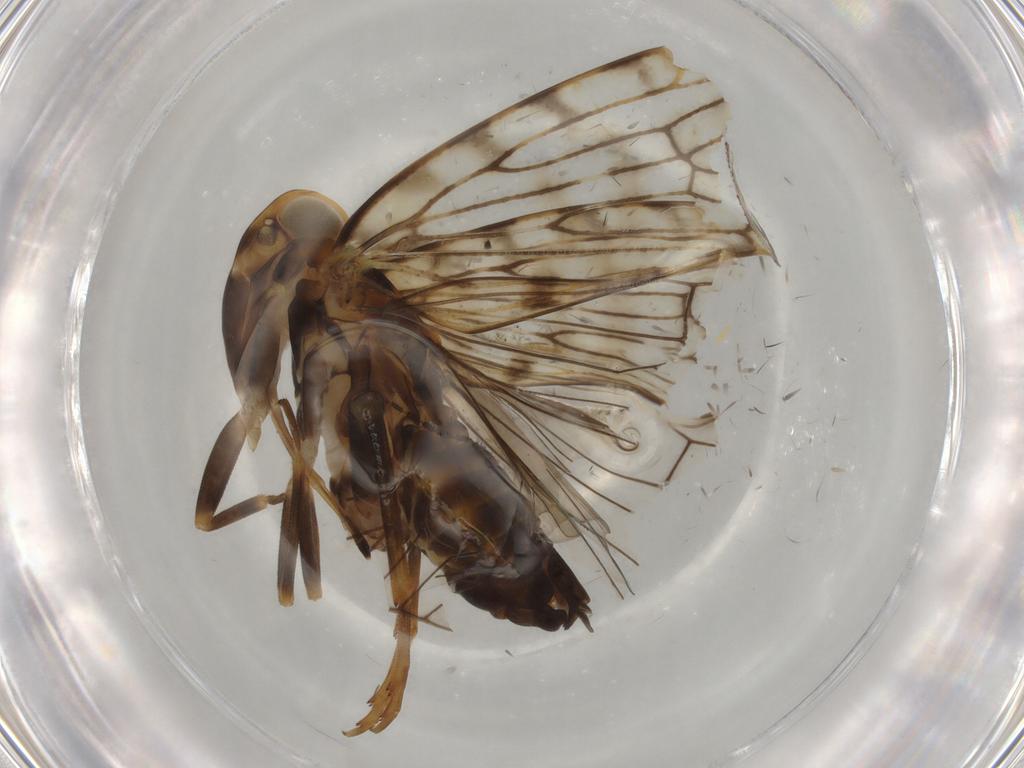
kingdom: Animalia
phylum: Arthropoda
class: Insecta
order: Hemiptera
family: Cixiidae
